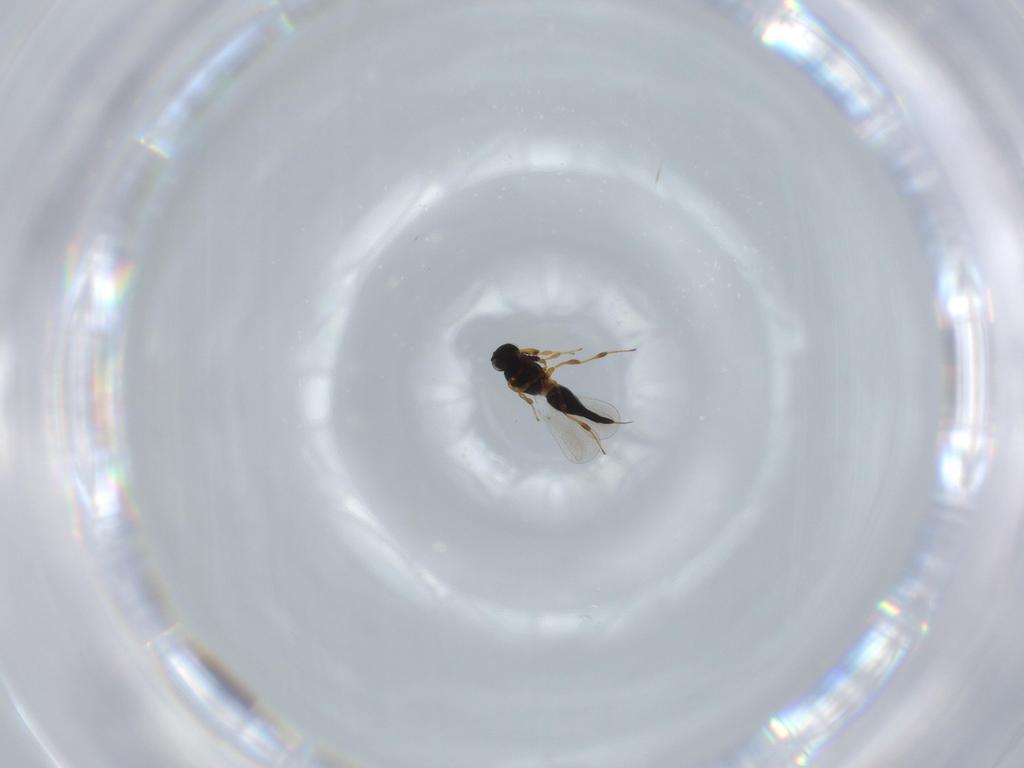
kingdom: Animalia
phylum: Arthropoda
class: Insecta
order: Hymenoptera
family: Platygastridae
